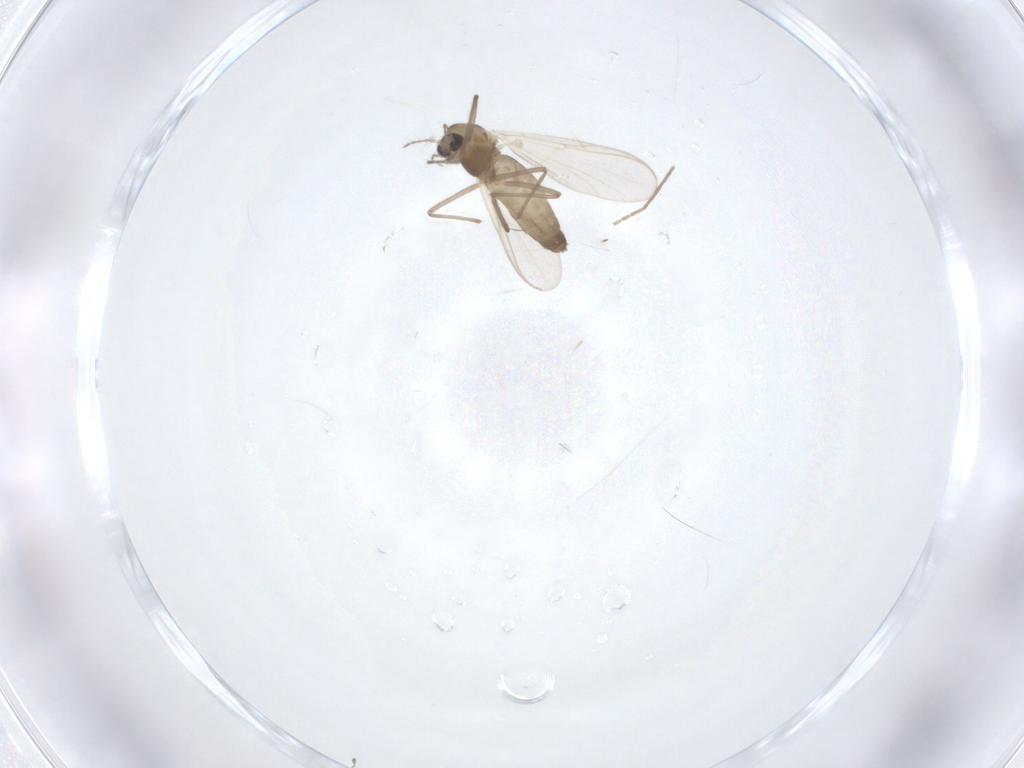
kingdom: Animalia
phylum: Arthropoda
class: Insecta
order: Diptera
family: Chironomidae
